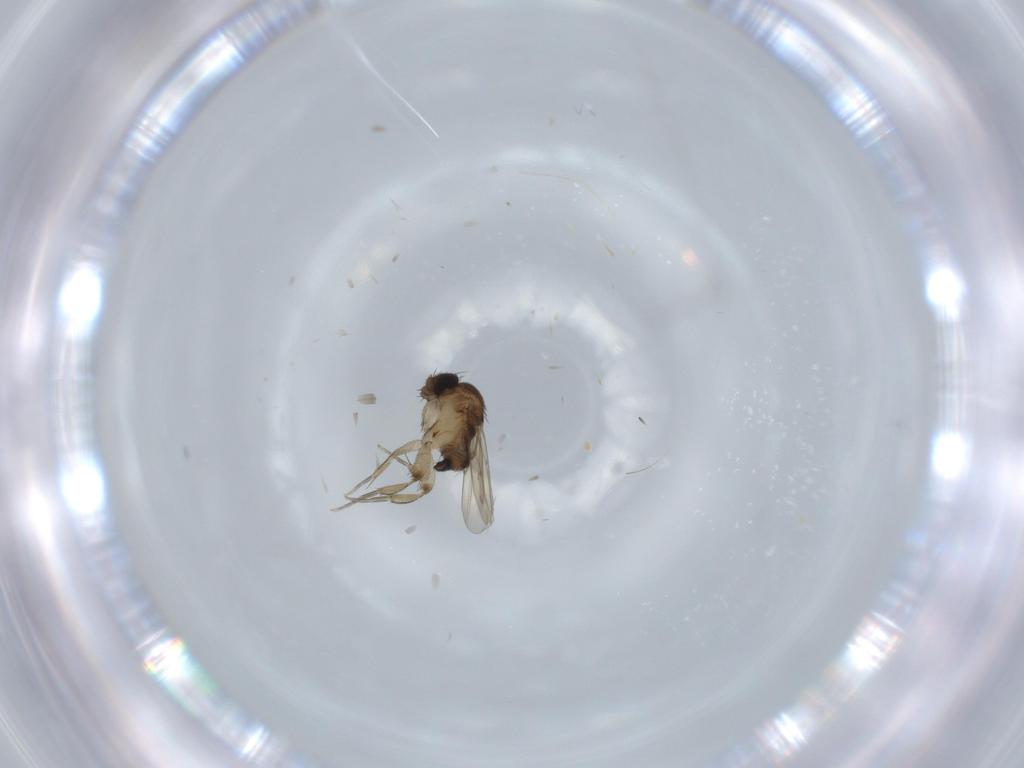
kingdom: Animalia
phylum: Arthropoda
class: Insecta
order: Diptera
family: Phoridae
